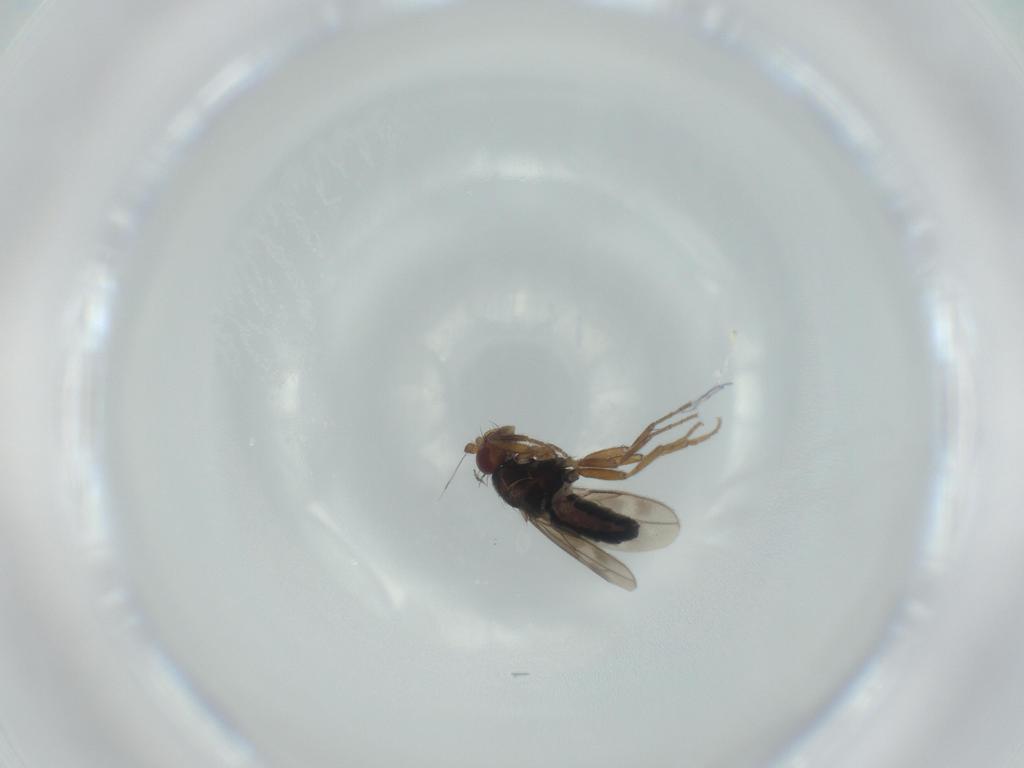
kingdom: Animalia
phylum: Arthropoda
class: Insecta
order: Diptera
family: Sphaeroceridae
